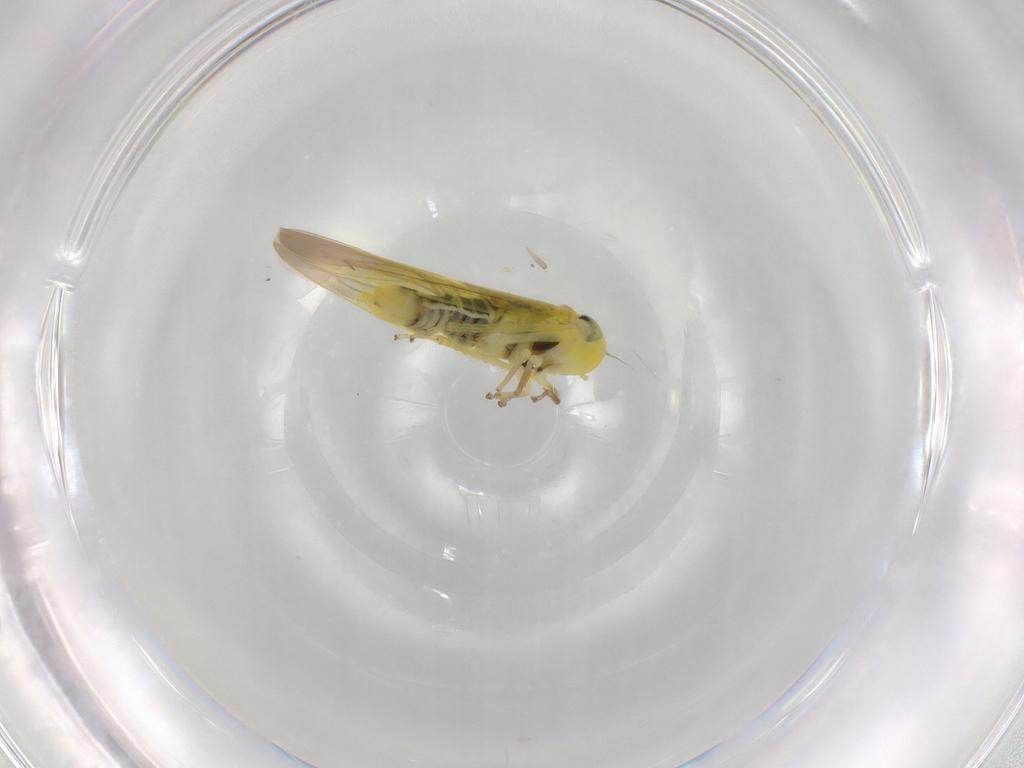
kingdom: Animalia
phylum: Arthropoda
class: Insecta
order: Hemiptera
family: Cicadellidae
